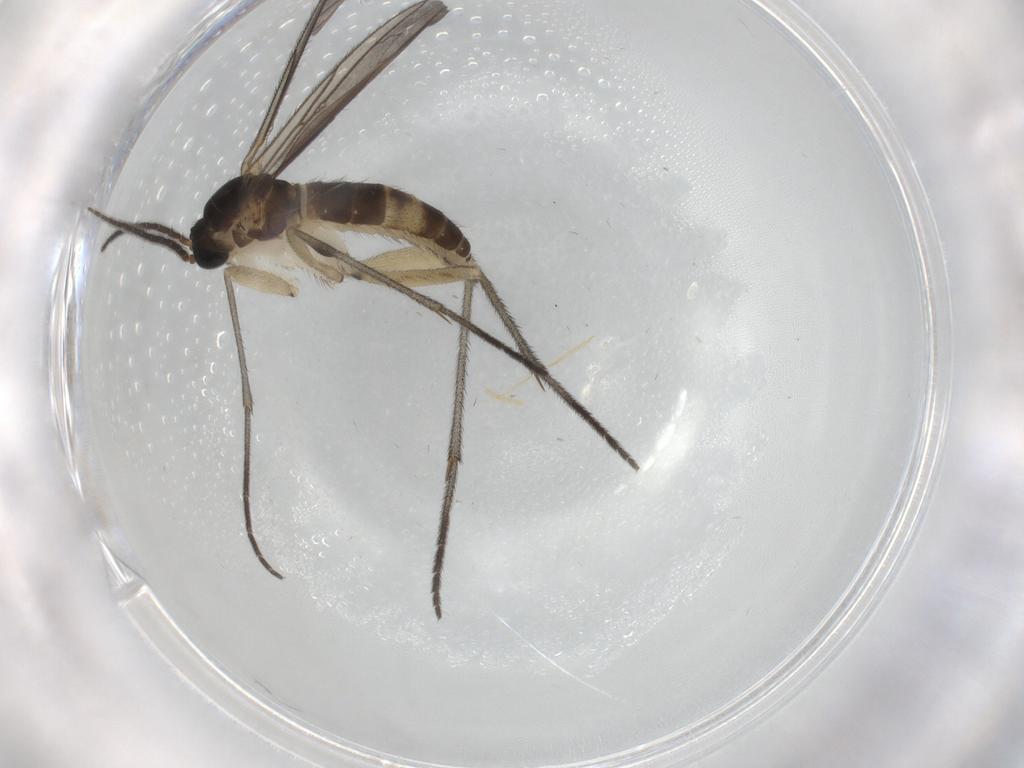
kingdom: Animalia
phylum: Arthropoda
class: Insecta
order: Diptera
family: Sciaridae
